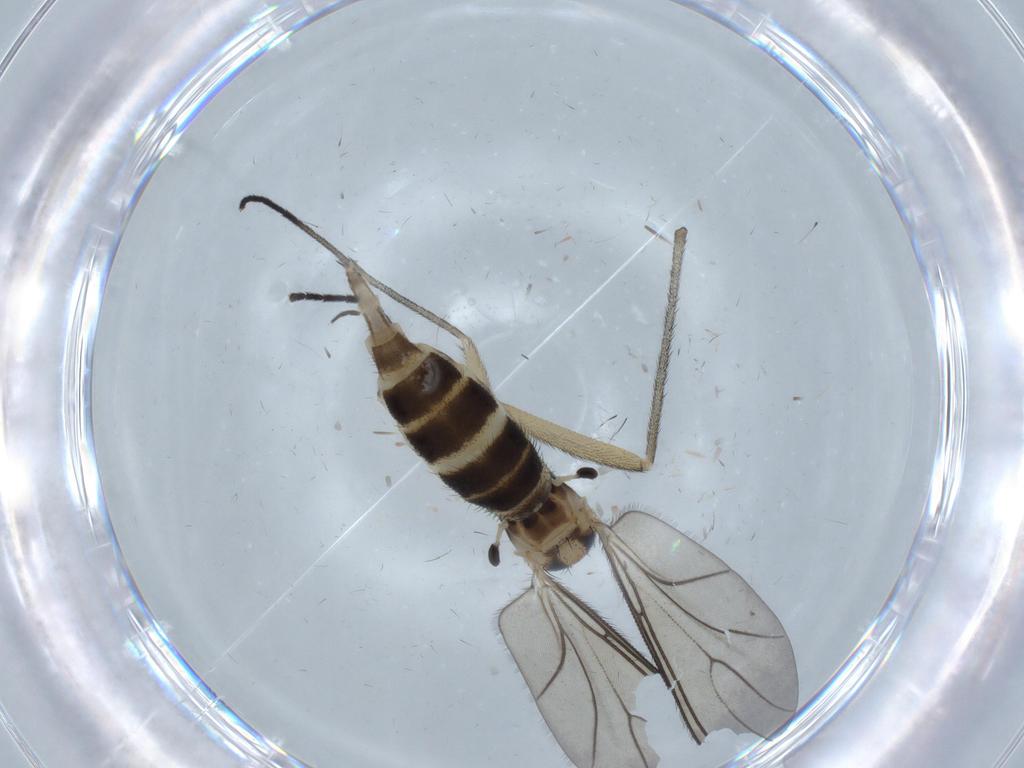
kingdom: Animalia
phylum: Arthropoda
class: Insecta
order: Diptera
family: Sciaridae
